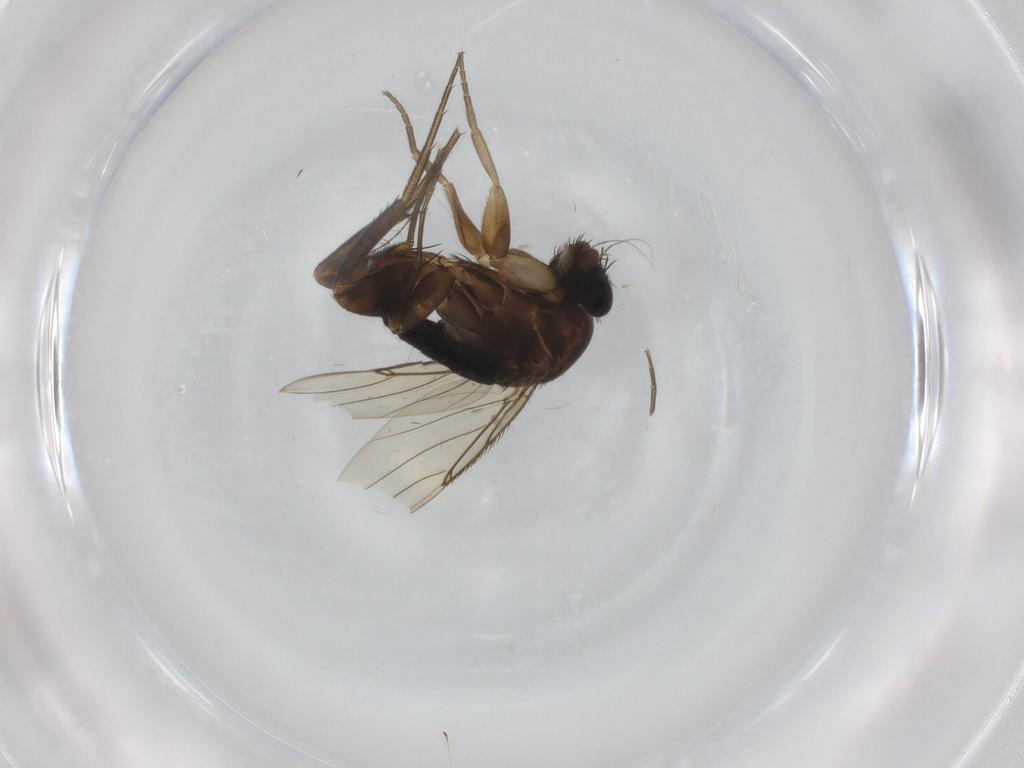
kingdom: Animalia
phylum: Arthropoda
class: Insecta
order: Diptera
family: Phoridae
